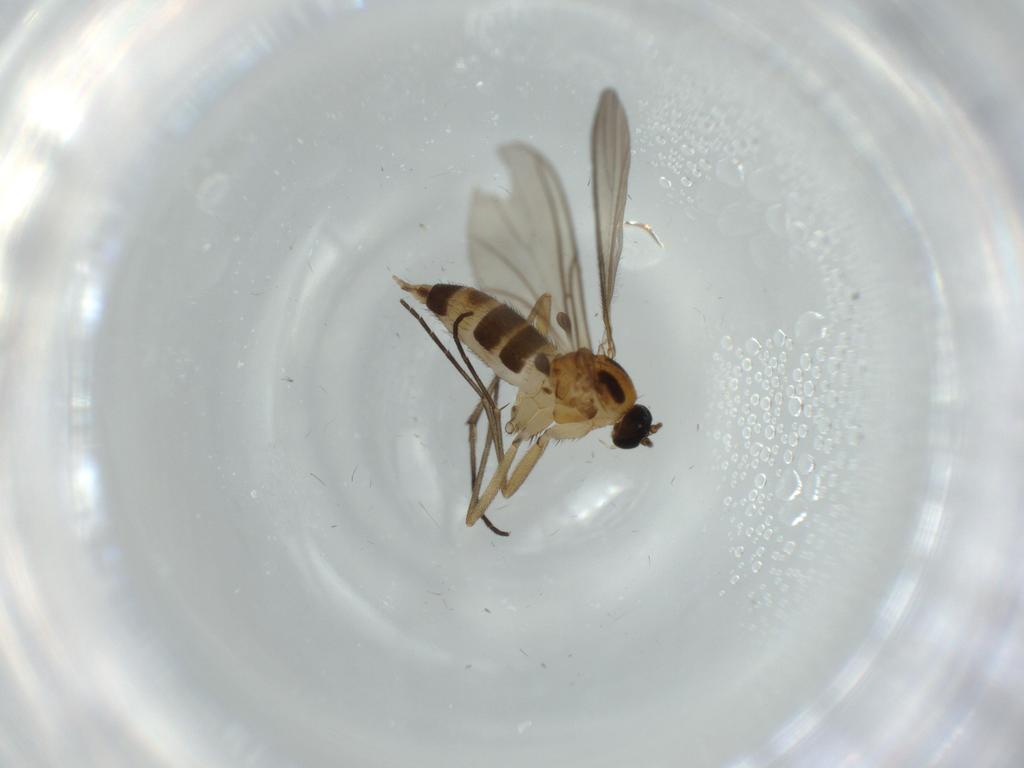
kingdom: Animalia
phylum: Arthropoda
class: Insecta
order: Diptera
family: Sciaridae
